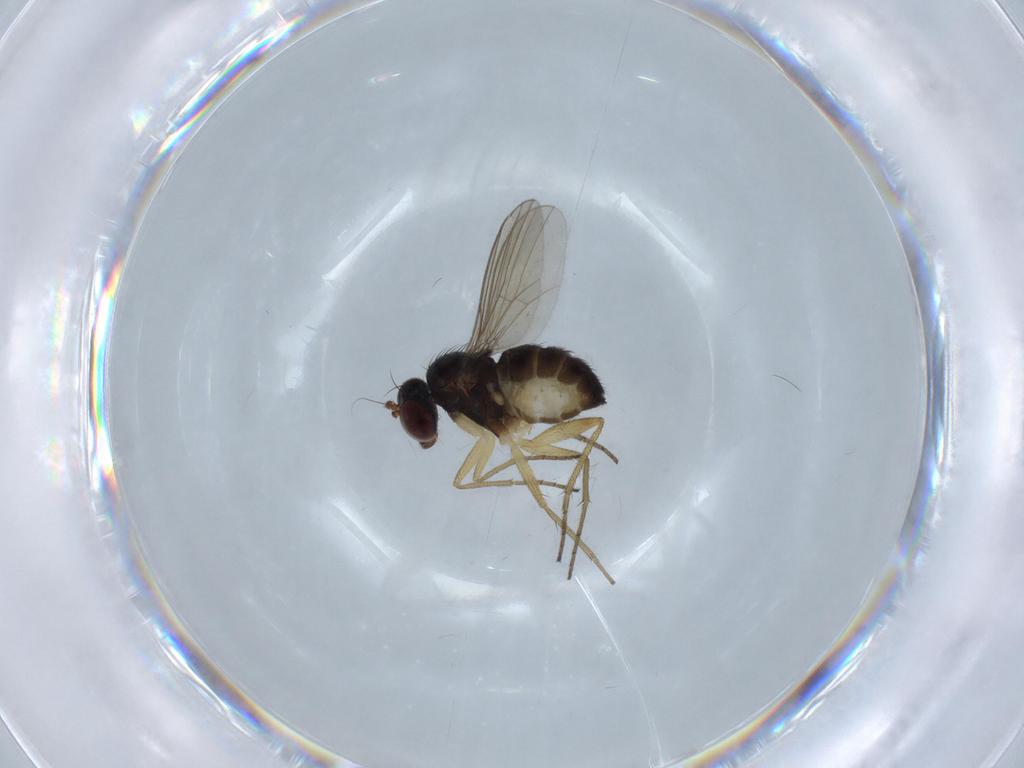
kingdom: Animalia
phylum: Arthropoda
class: Insecta
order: Diptera
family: Dolichopodidae
